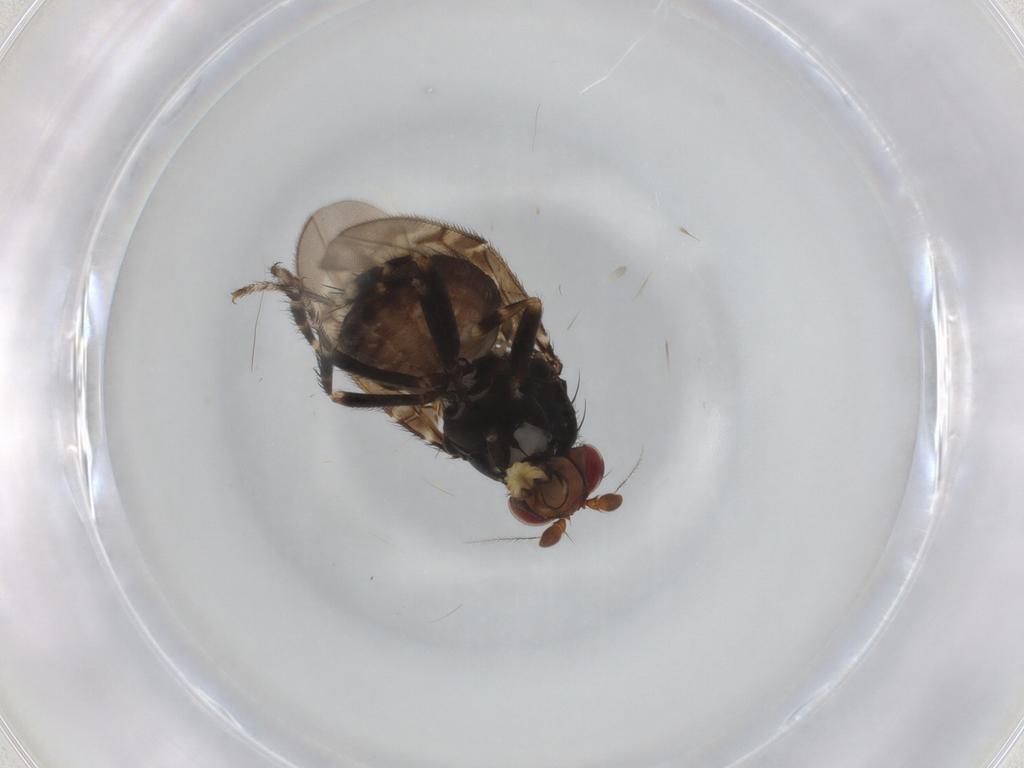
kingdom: Animalia
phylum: Arthropoda
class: Insecta
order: Diptera
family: Sphaeroceridae
